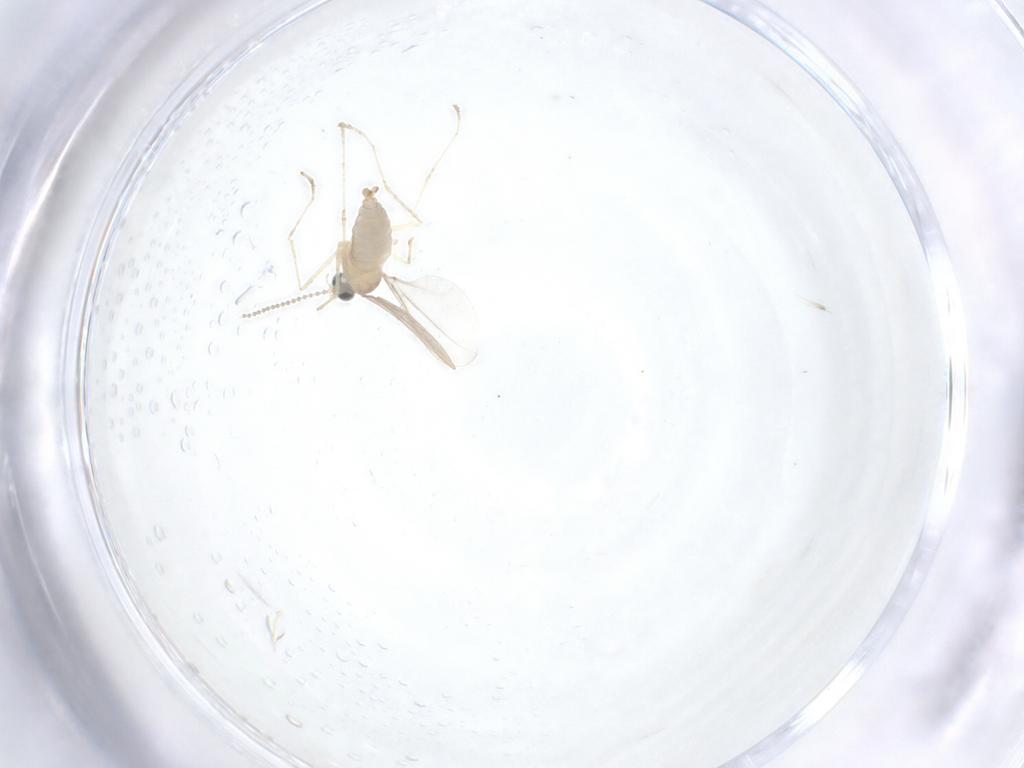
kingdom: Animalia
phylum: Arthropoda
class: Insecta
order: Diptera
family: Cecidomyiidae
